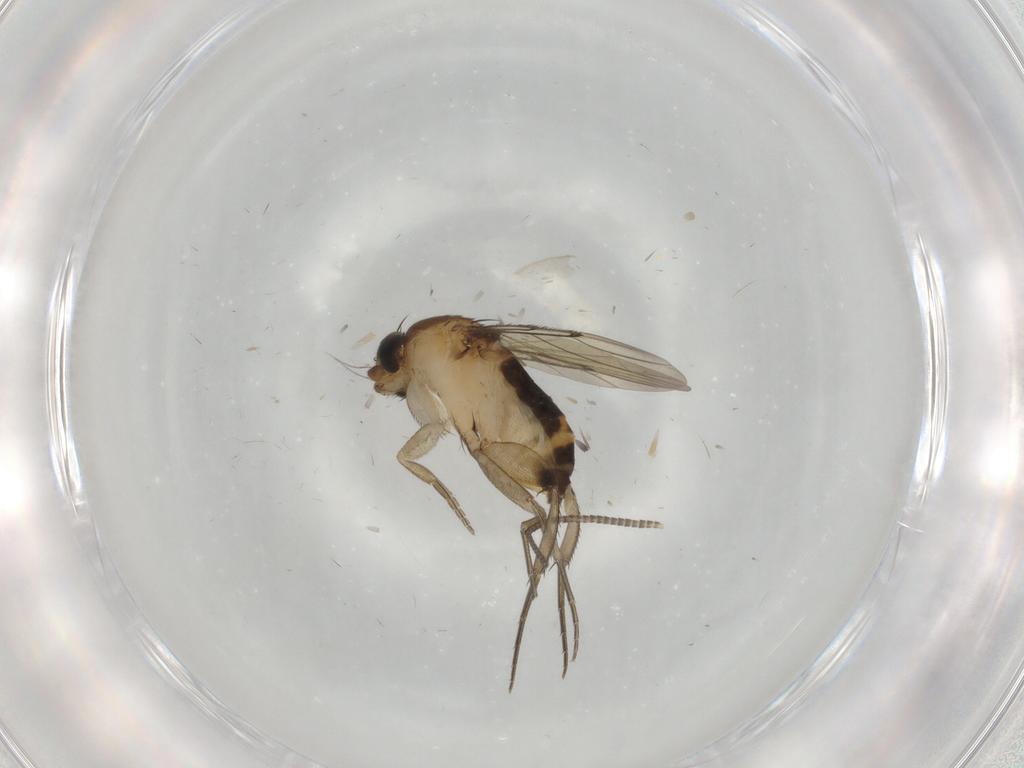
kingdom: Animalia
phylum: Arthropoda
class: Insecta
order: Diptera
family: Phoridae
